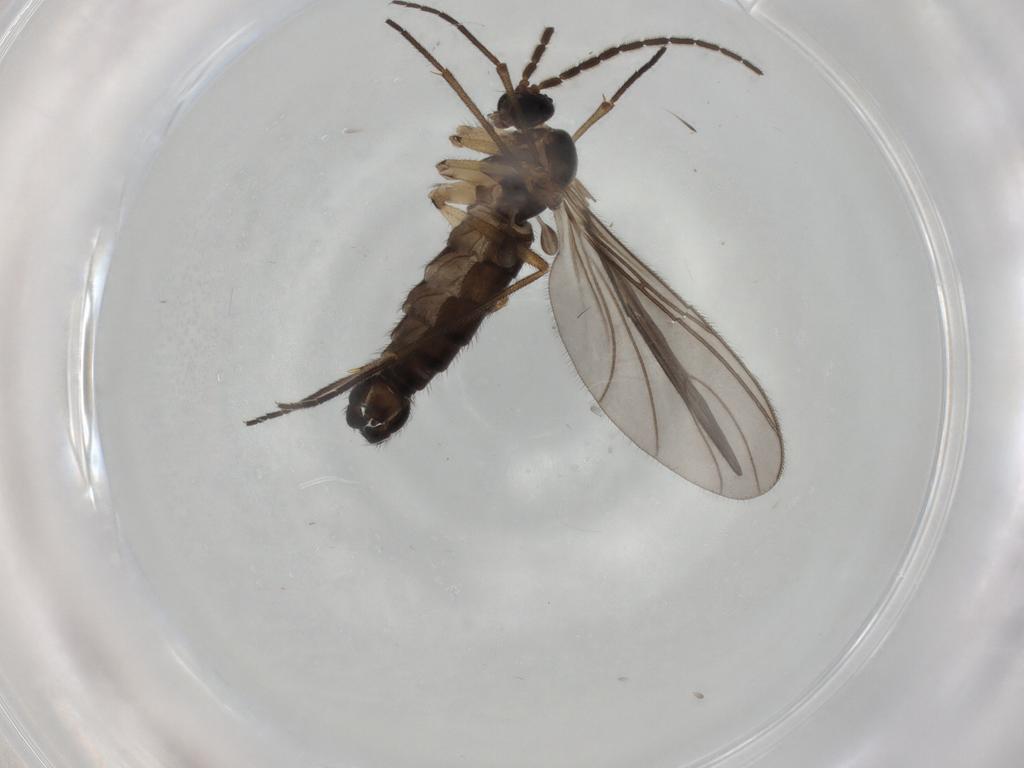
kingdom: Animalia
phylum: Arthropoda
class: Insecta
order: Diptera
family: Sciaridae
